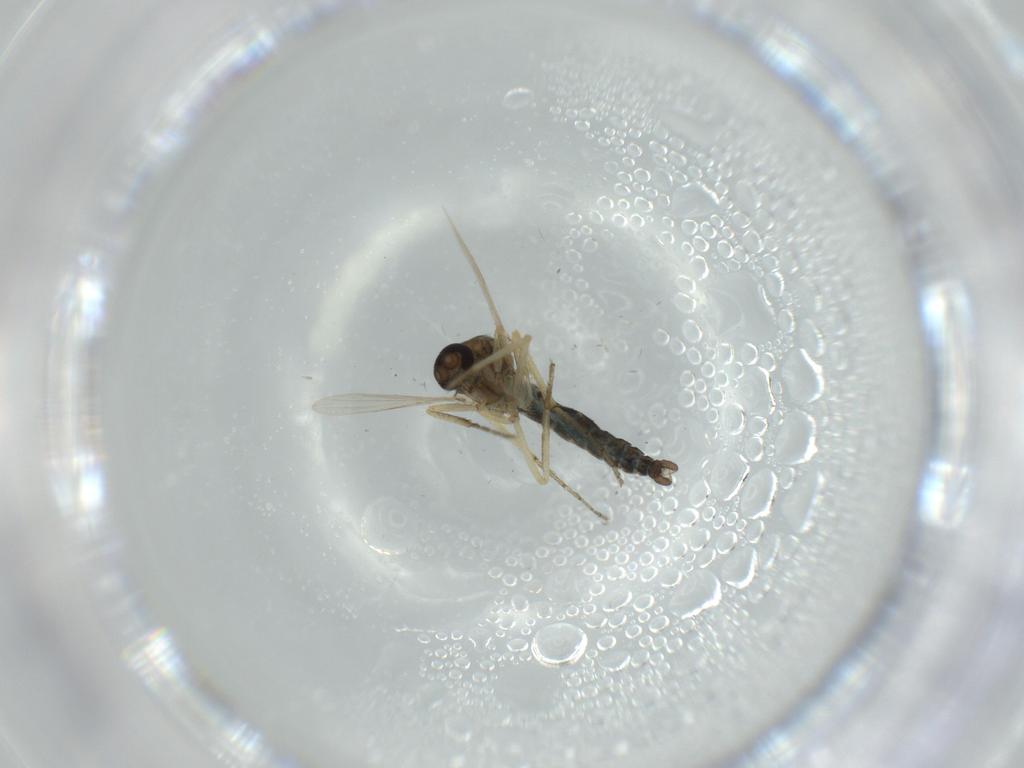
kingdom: Animalia
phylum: Arthropoda
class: Insecta
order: Diptera
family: Ceratopogonidae
